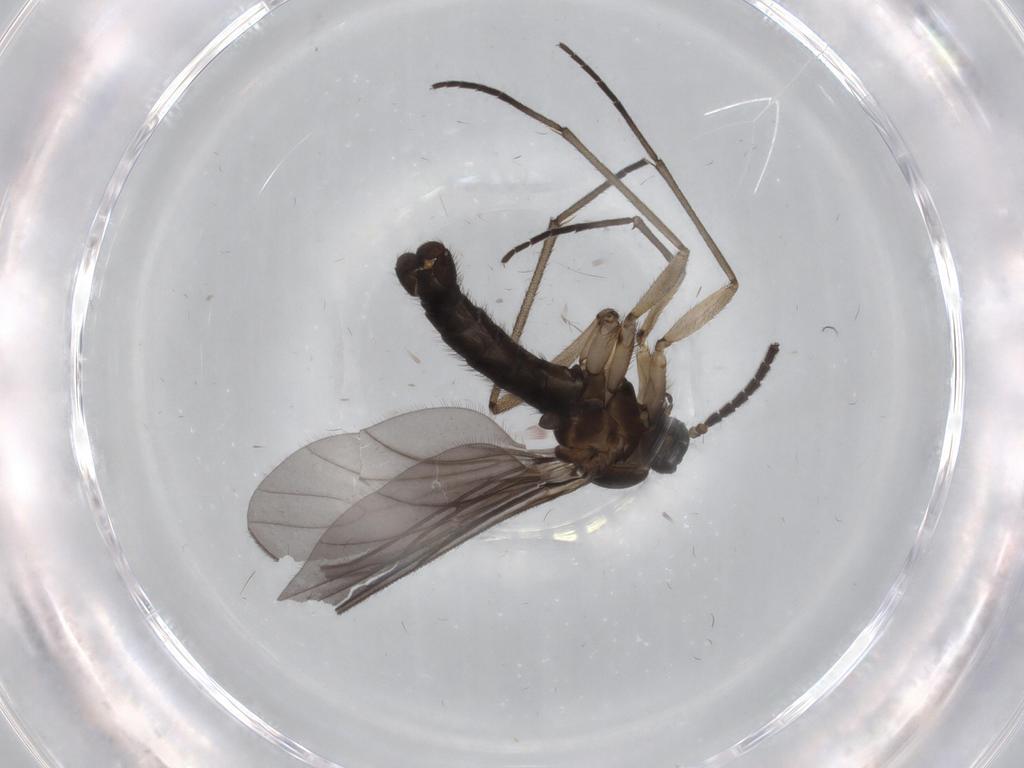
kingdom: Animalia
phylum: Arthropoda
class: Insecta
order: Diptera
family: Sciaridae
